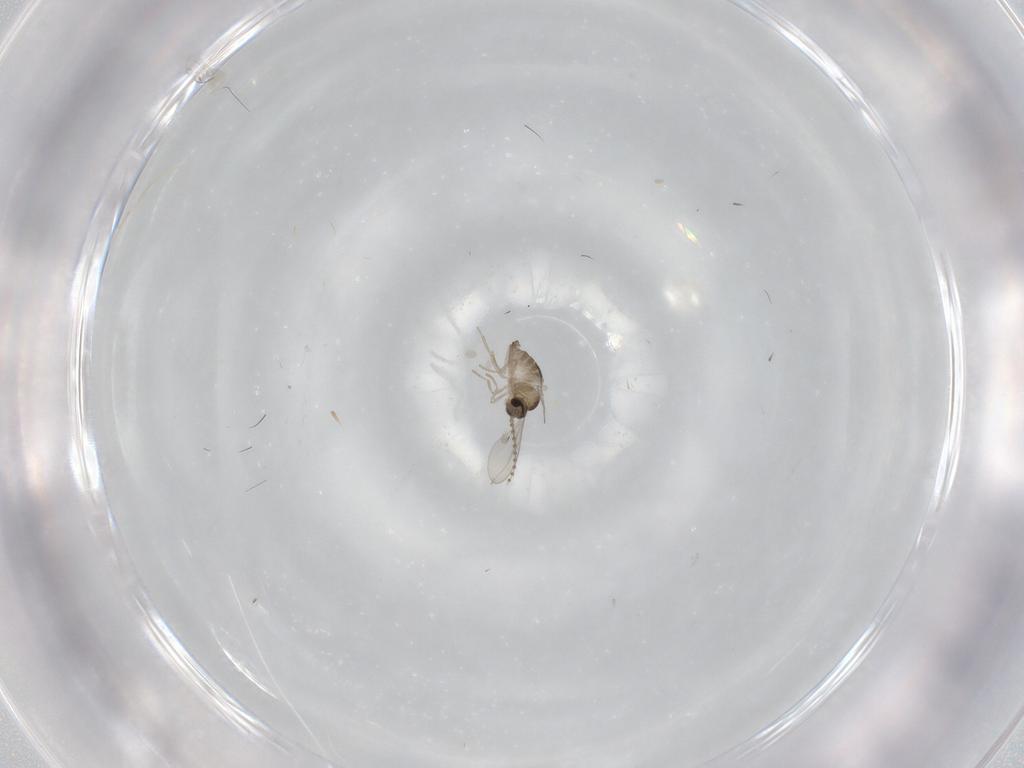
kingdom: Animalia
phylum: Arthropoda
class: Insecta
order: Diptera
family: Cecidomyiidae
